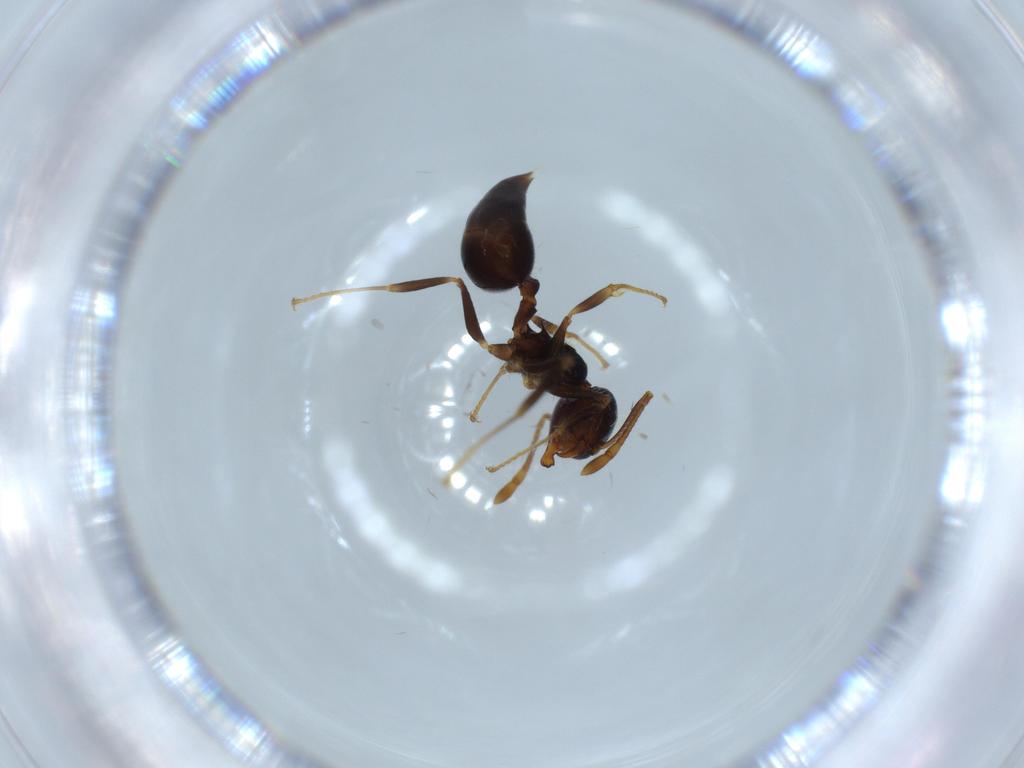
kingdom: Animalia
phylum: Arthropoda
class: Insecta
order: Hymenoptera
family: Formicidae
